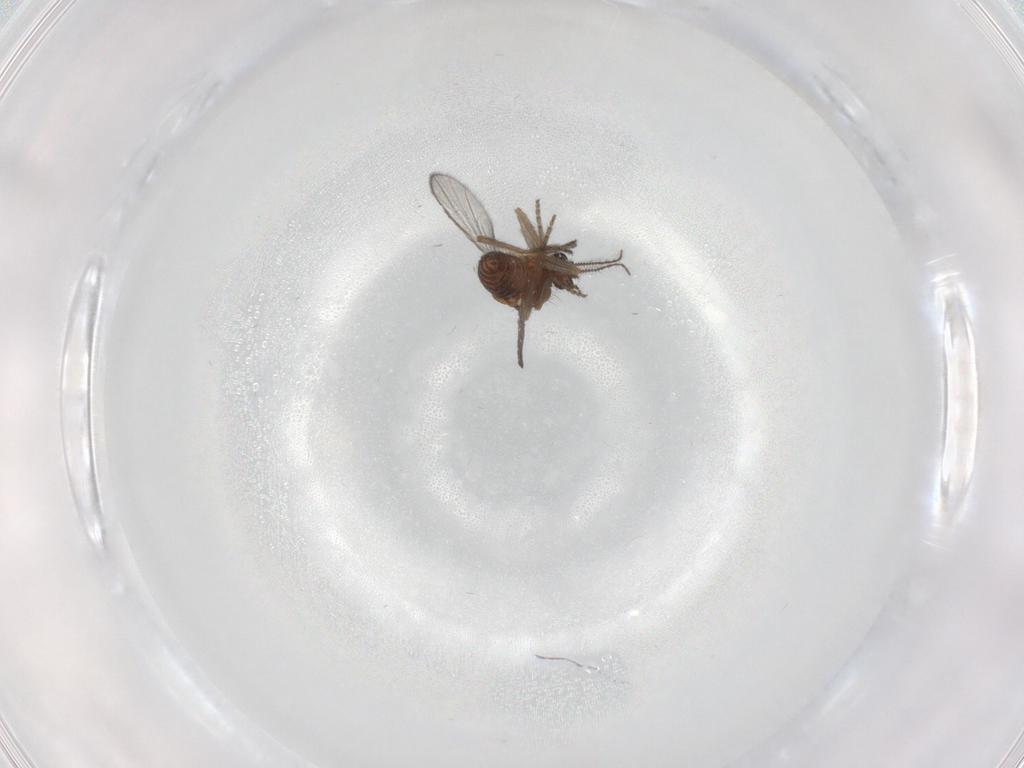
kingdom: Animalia
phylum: Arthropoda
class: Insecta
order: Diptera
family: Ceratopogonidae
